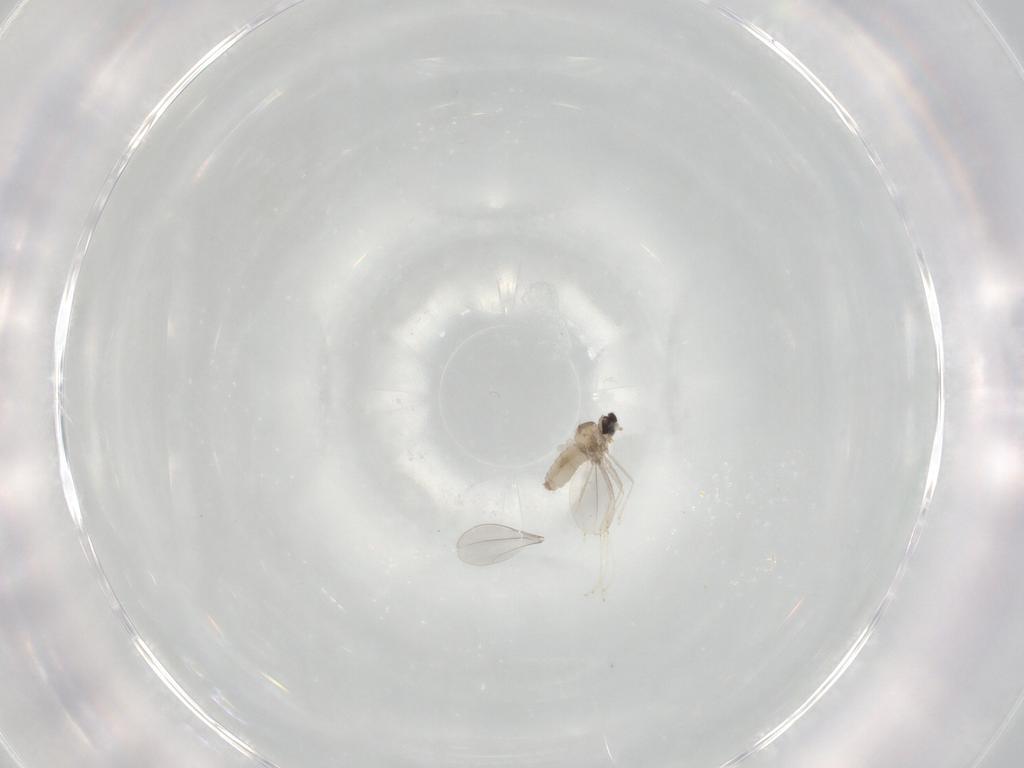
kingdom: Animalia
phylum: Arthropoda
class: Insecta
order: Diptera
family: Cecidomyiidae
